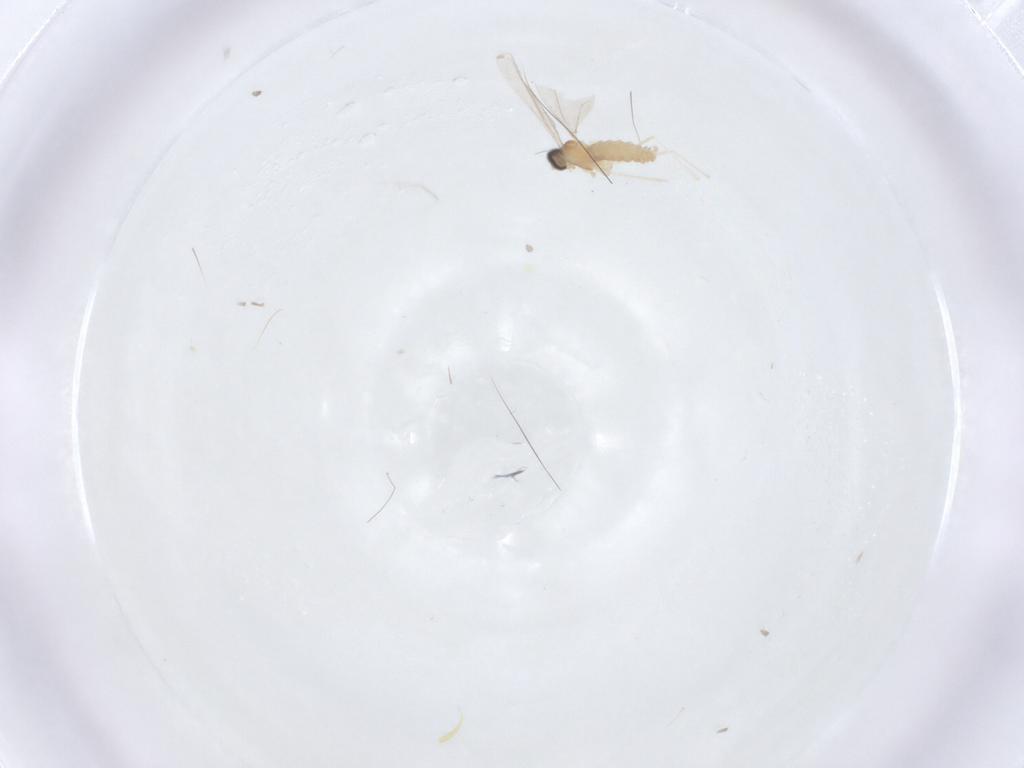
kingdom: Animalia
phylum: Arthropoda
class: Insecta
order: Diptera
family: Cecidomyiidae
